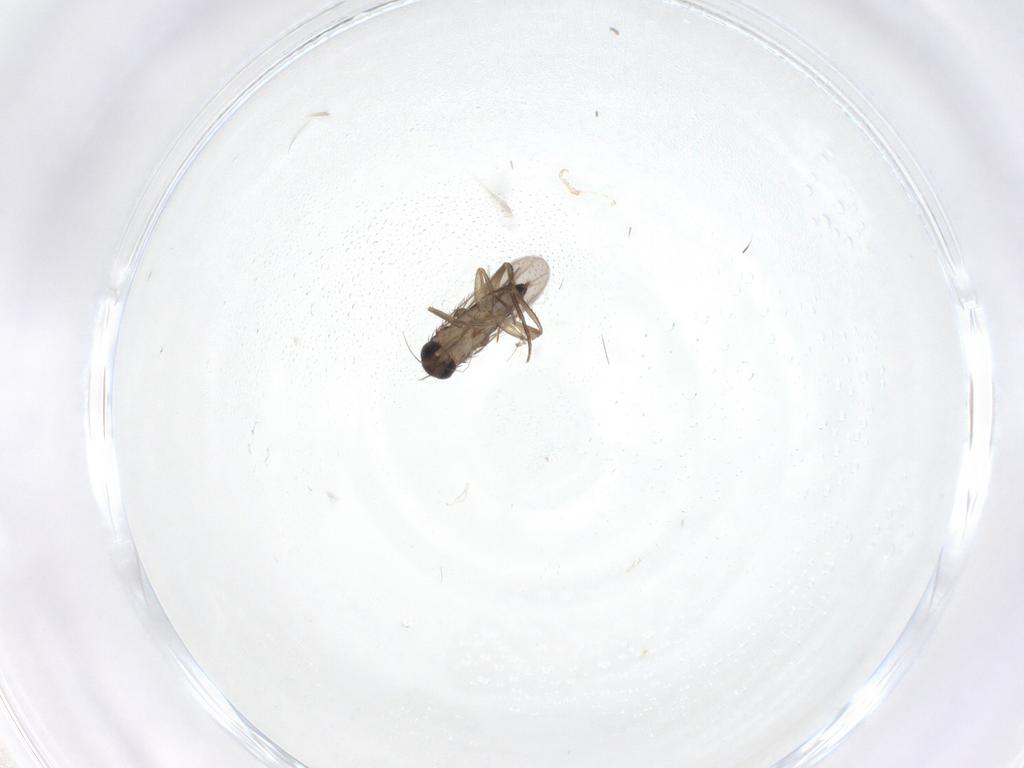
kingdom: Animalia
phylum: Arthropoda
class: Insecta
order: Diptera
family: Phoridae
